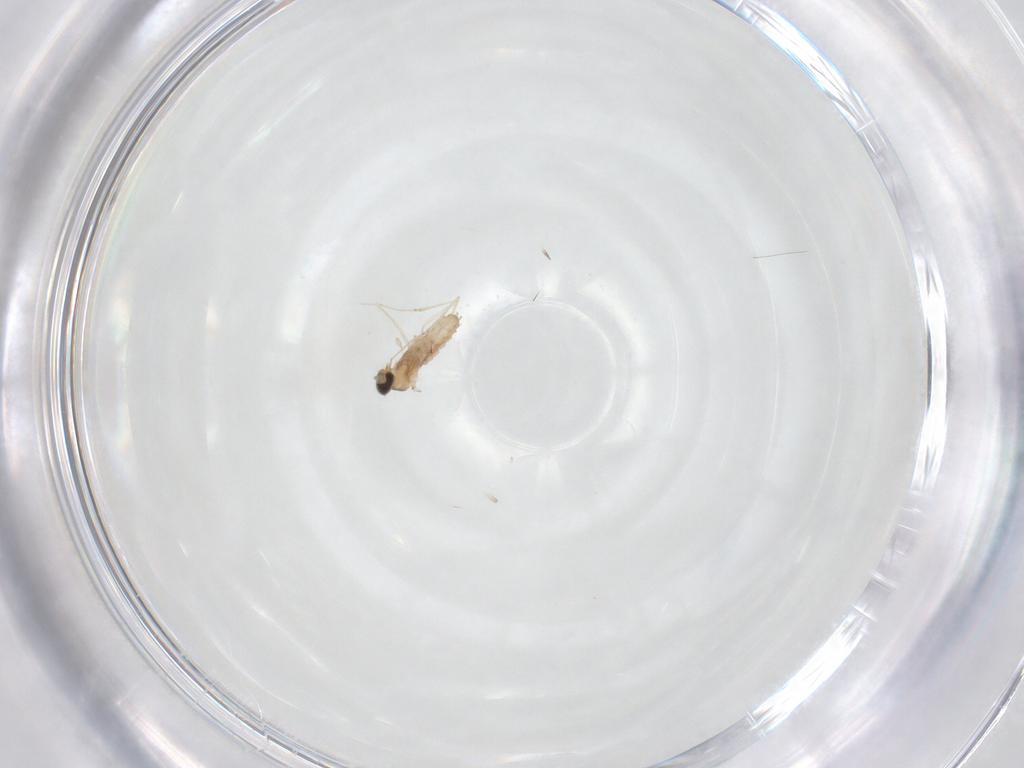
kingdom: Animalia
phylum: Arthropoda
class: Insecta
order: Diptera
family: Cecidomyiidae
